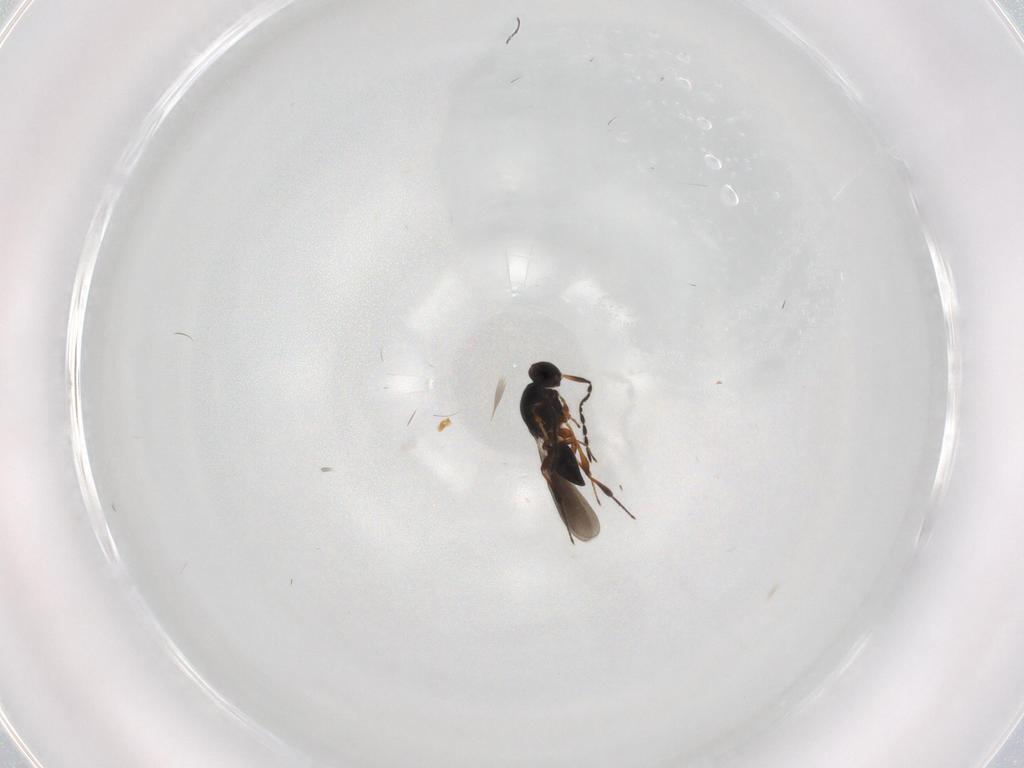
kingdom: Animalia
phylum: Arthropoda
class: Insecta
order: Hymenoptera
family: Platygastridae
